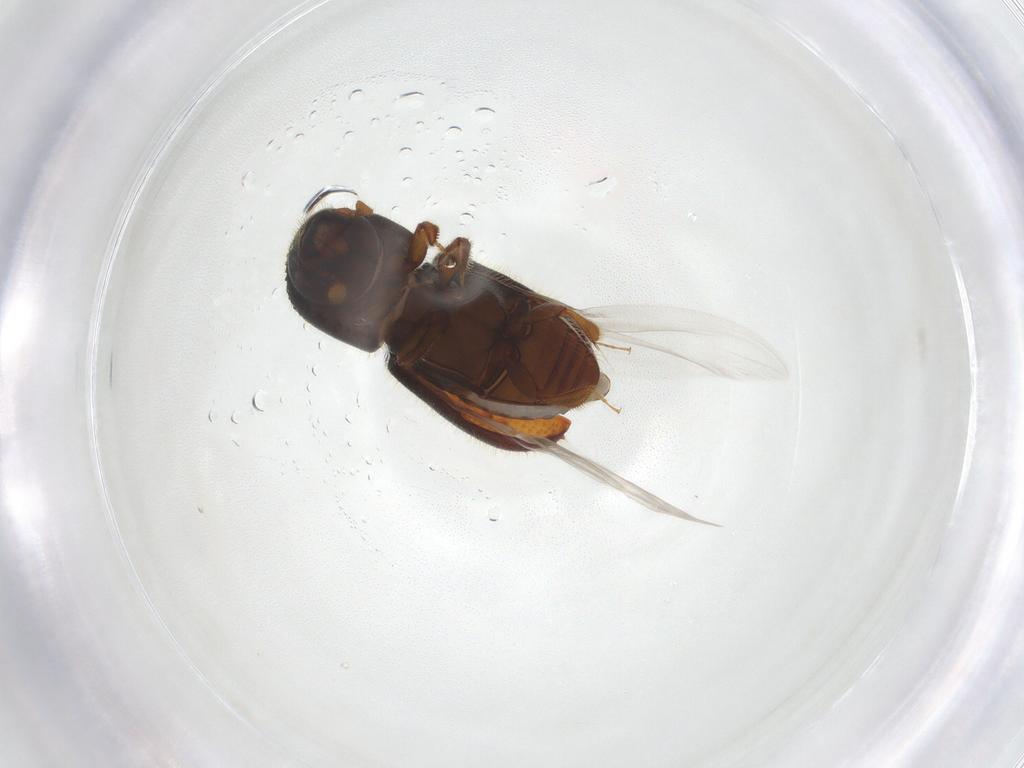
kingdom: Animalia
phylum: Arthropoda
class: Insecta
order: Coleoptera
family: Curculionidae
